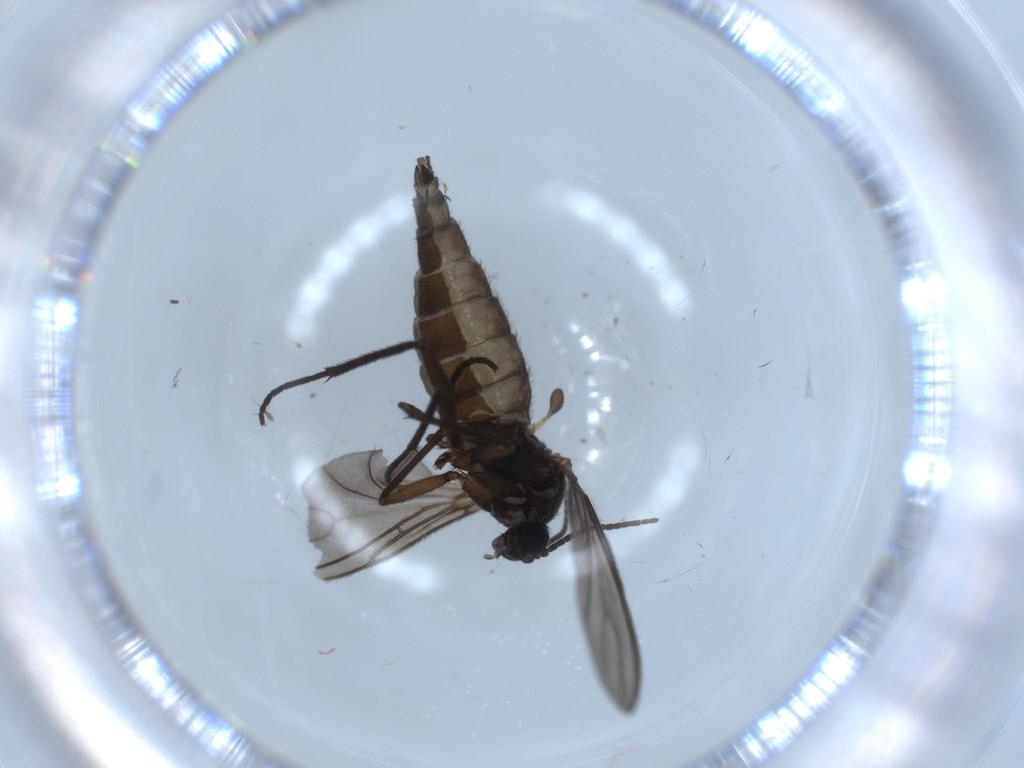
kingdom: Animalia
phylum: Arthropoda
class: Insecta
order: Diptera
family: Sciaridae
